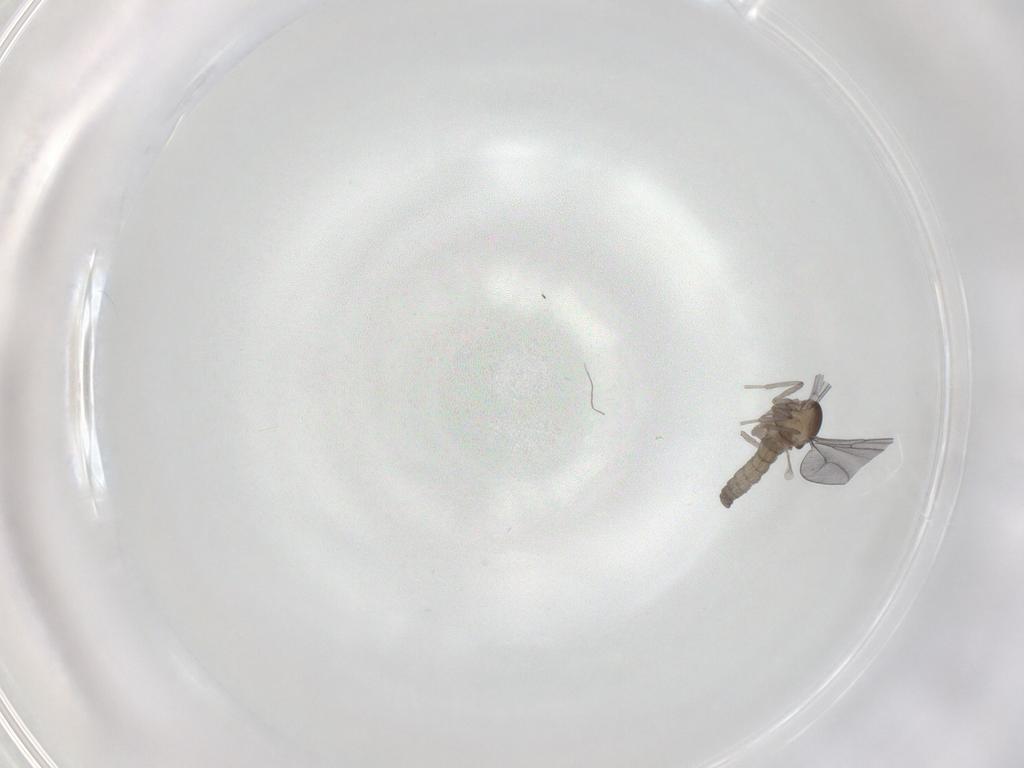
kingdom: Animalia
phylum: Arthropoda
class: Insecta
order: Diptera
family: Cecidomyiidae
